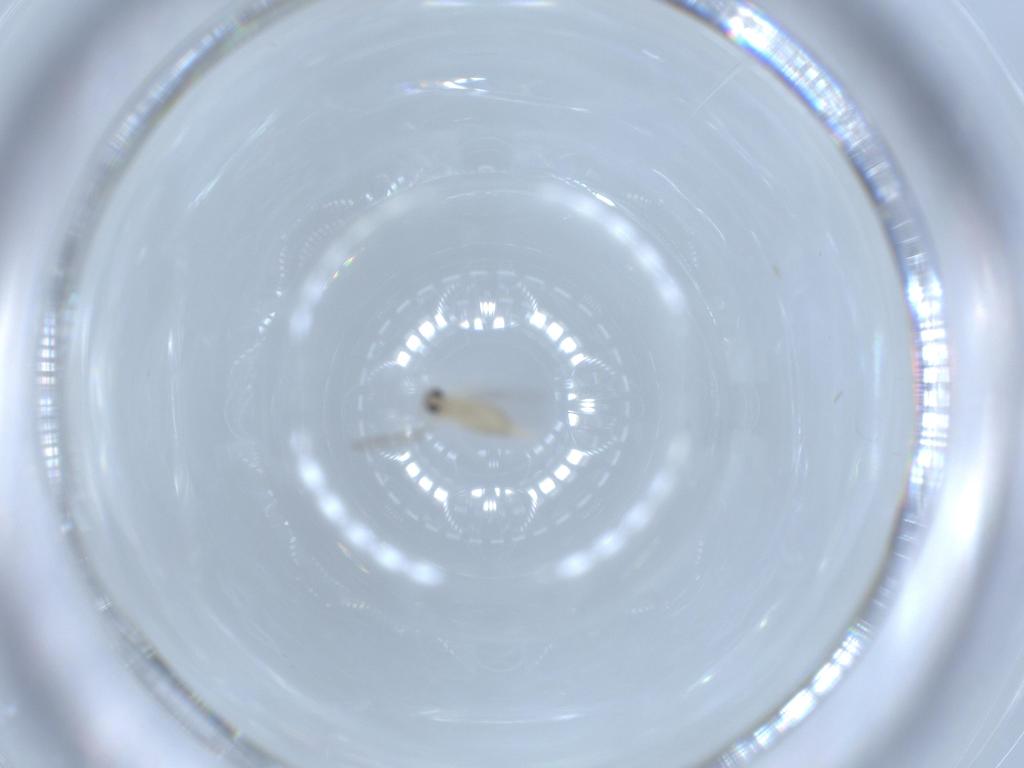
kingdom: Animalia
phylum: Arthropoda
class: Insecta
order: Diptera
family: Cecidomyiidae
